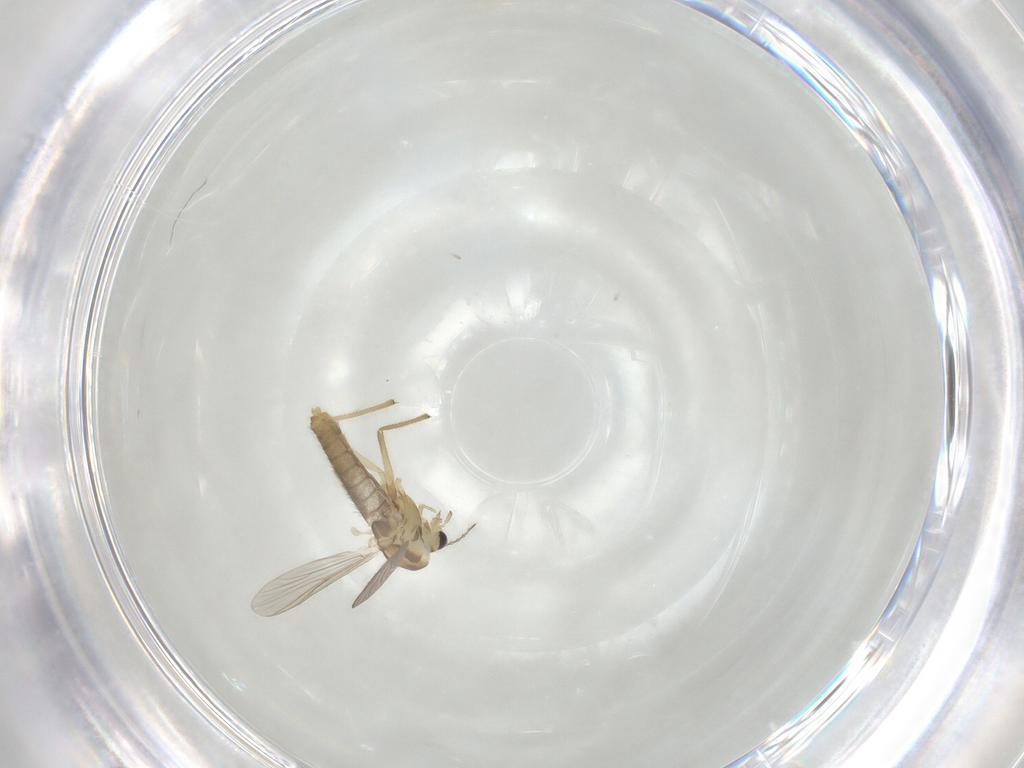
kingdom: Animalia
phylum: Arthropoda
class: Insecta
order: Diptera
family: Chironomidae
